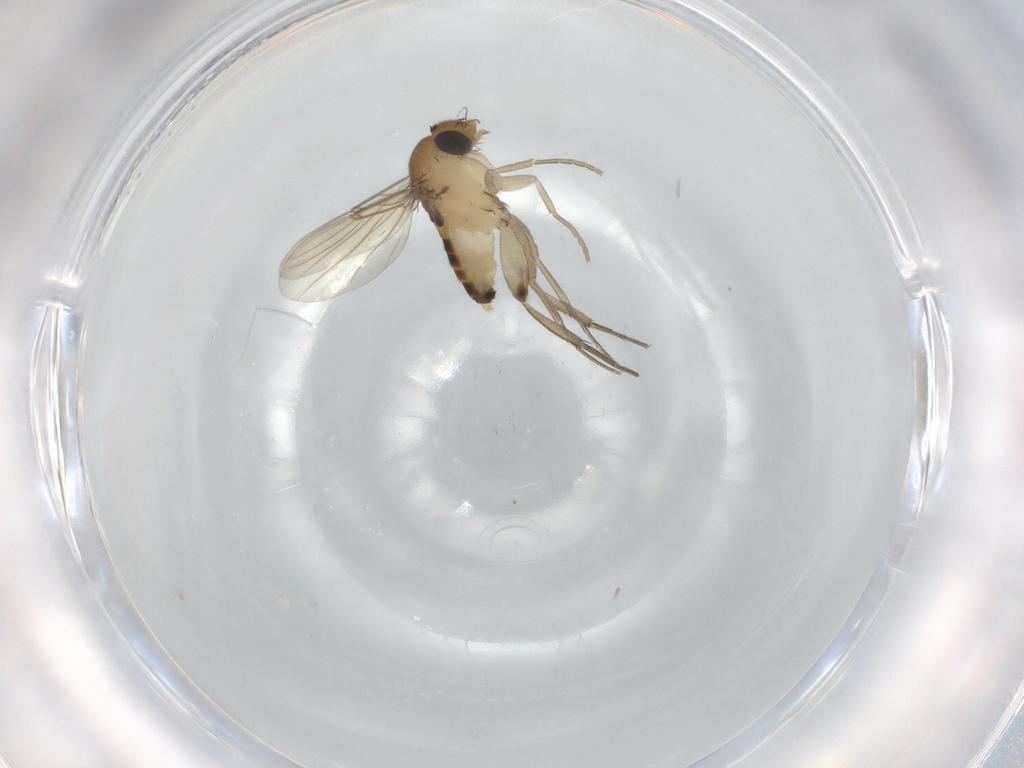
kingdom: Animalia
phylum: Arthropoda
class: Insecta
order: Diptera
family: Phoridae
